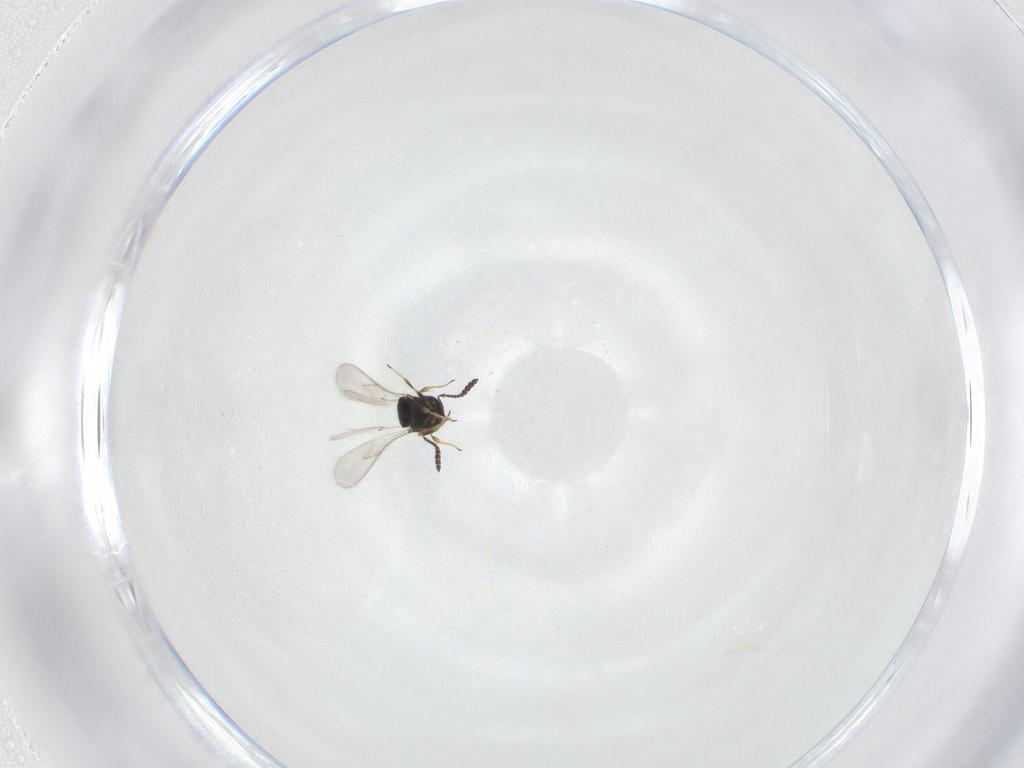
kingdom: Animalia
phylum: Arthropoda
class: Insecta
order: Hymenoptera
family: Scelionidae
